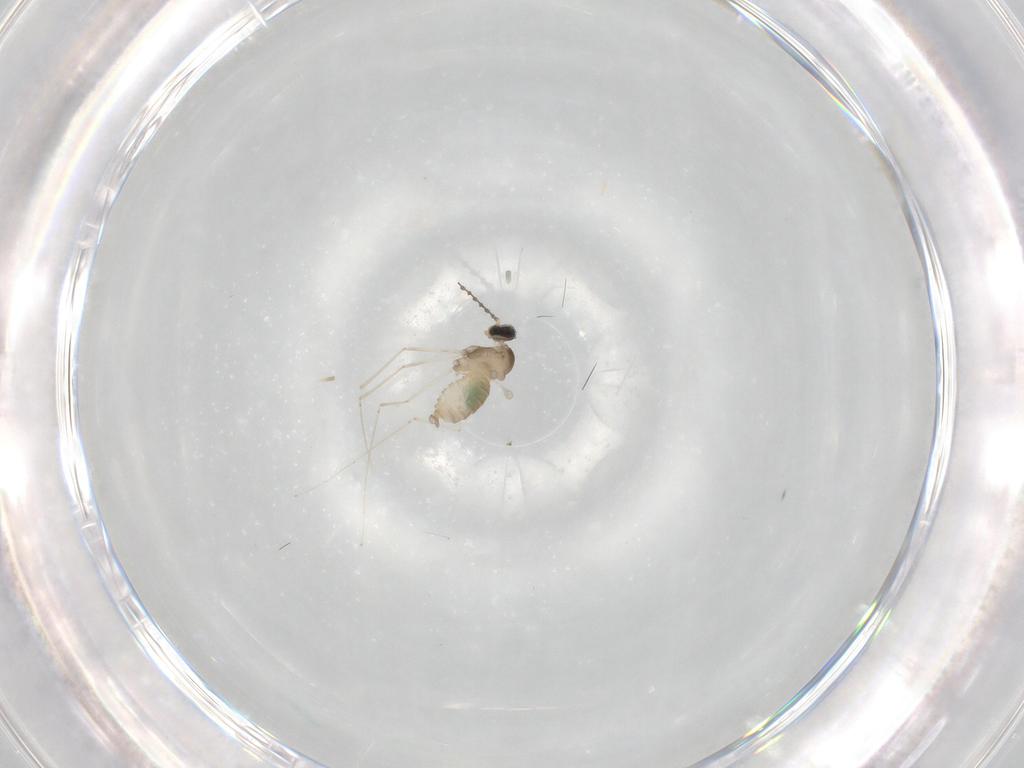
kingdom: Animalia
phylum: Arthropoda
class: Insecta
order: Diptera
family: Cecidomyiidae
